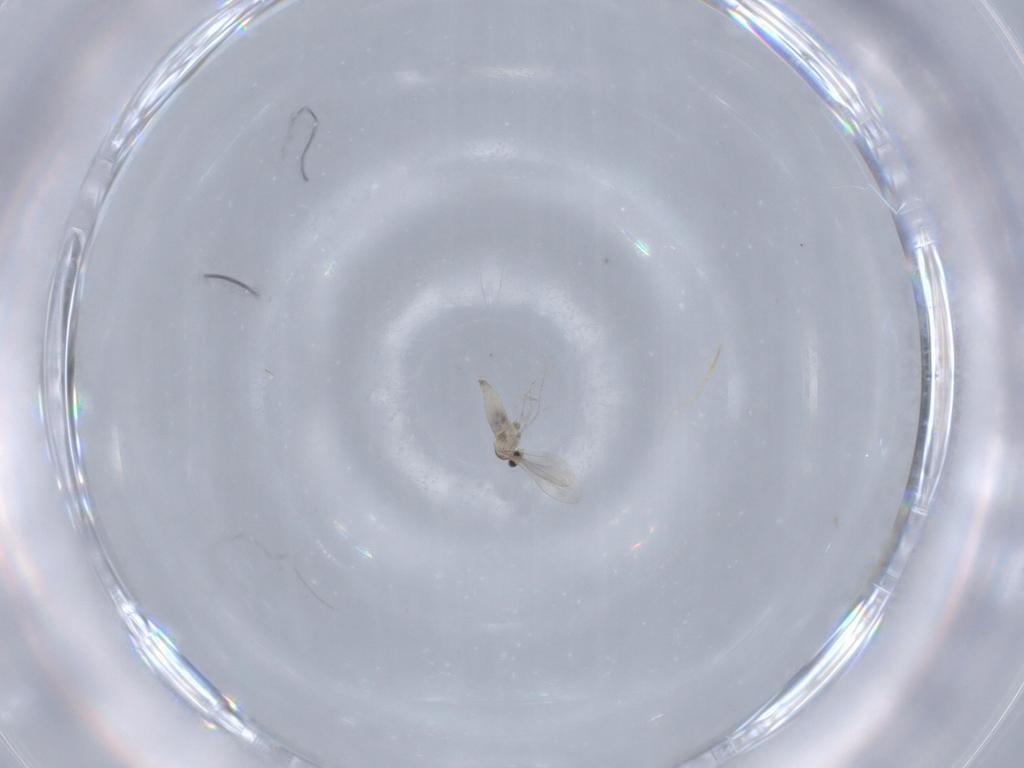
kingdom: Animalia
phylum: Arthropoda
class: Insecta
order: Diptera
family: Cecidomyiidae
